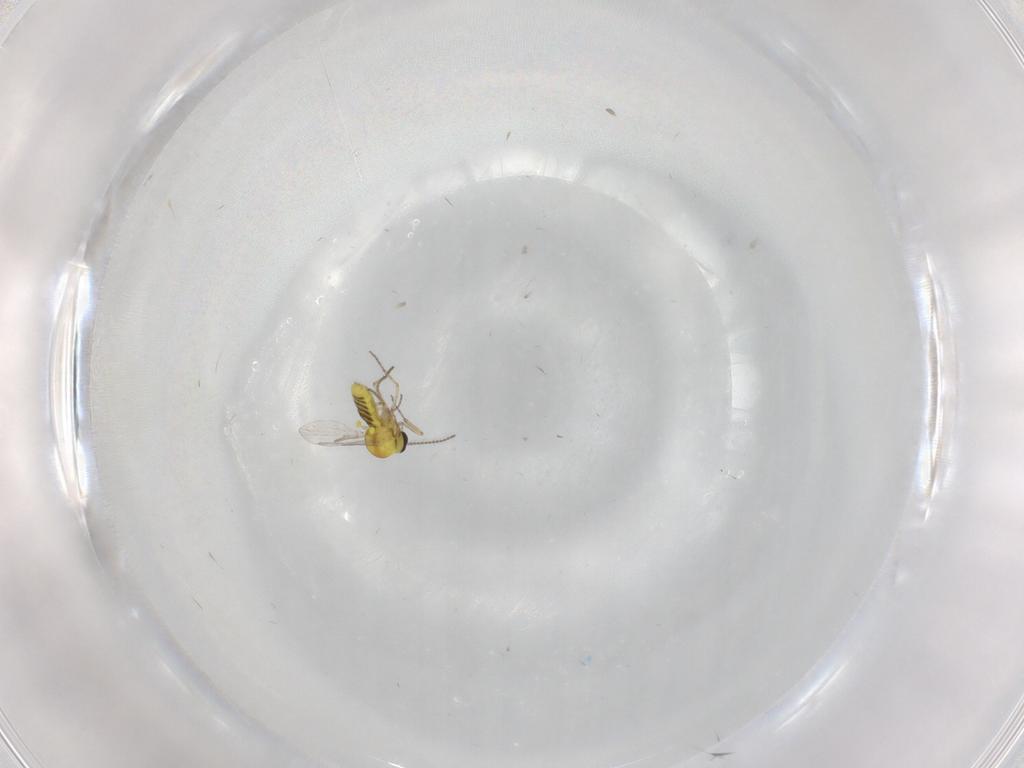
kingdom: Animalia
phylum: Arthropoda
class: Insecta
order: Diptera
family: Ceratopogonidae
